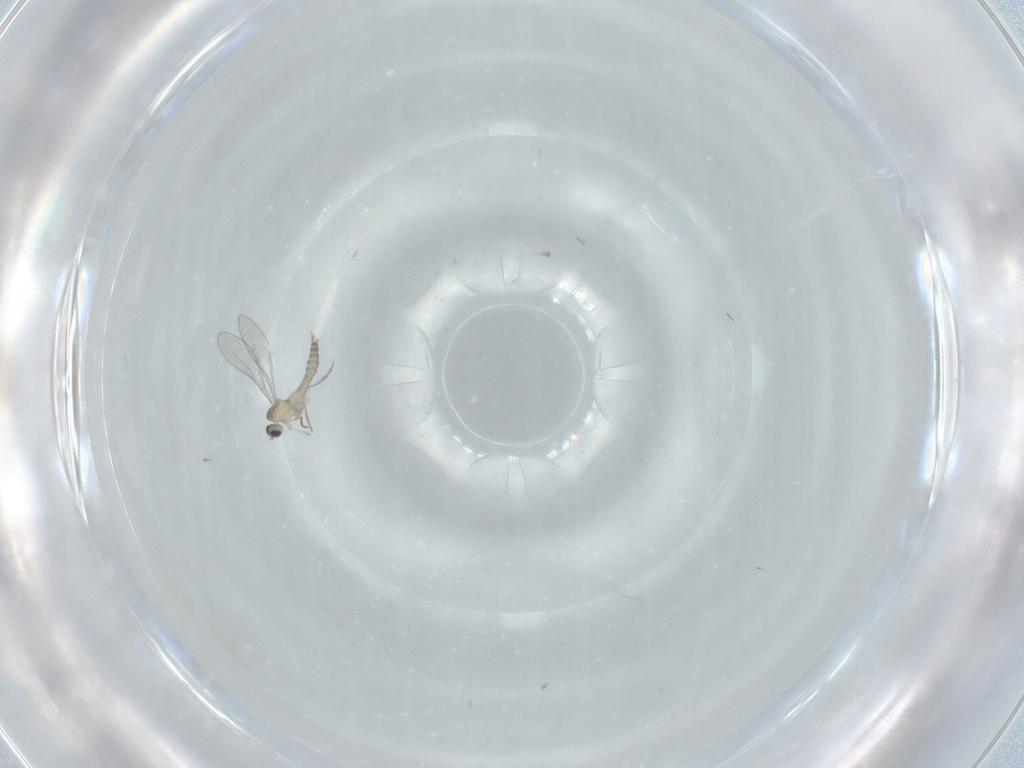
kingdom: Animalia
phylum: Arthropoda
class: Insecta
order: Diptera
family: Cecidomyiidae
